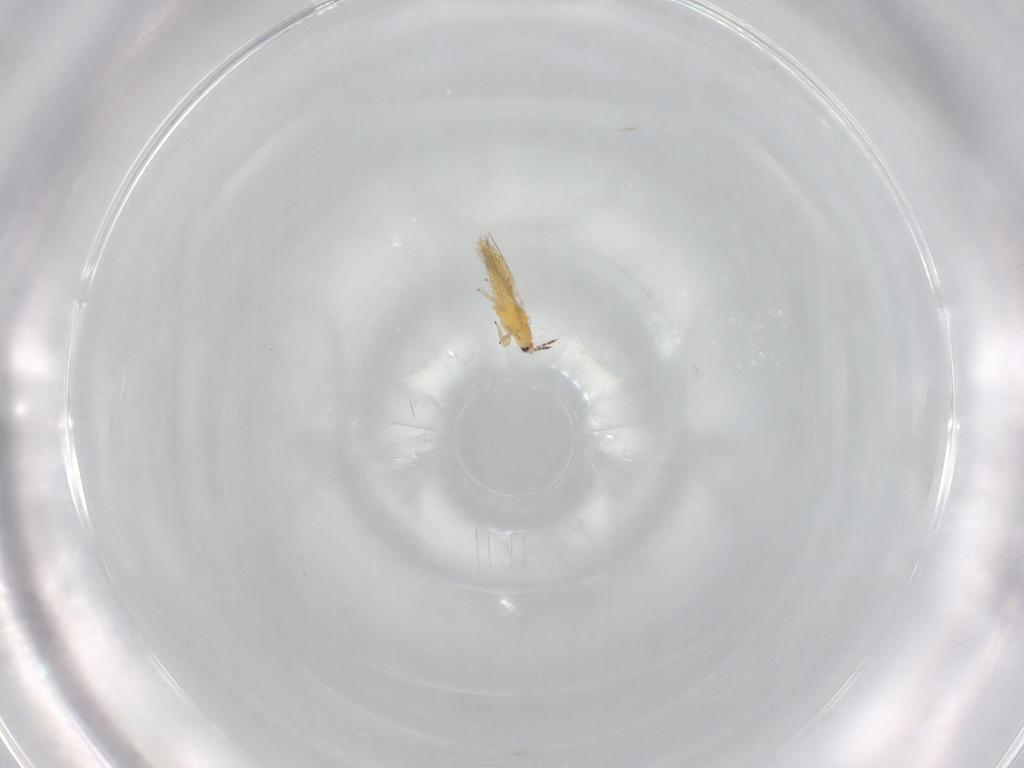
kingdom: Animalia
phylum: Arthropoda
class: Insecta
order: Thysanoptera
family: Thripidae
